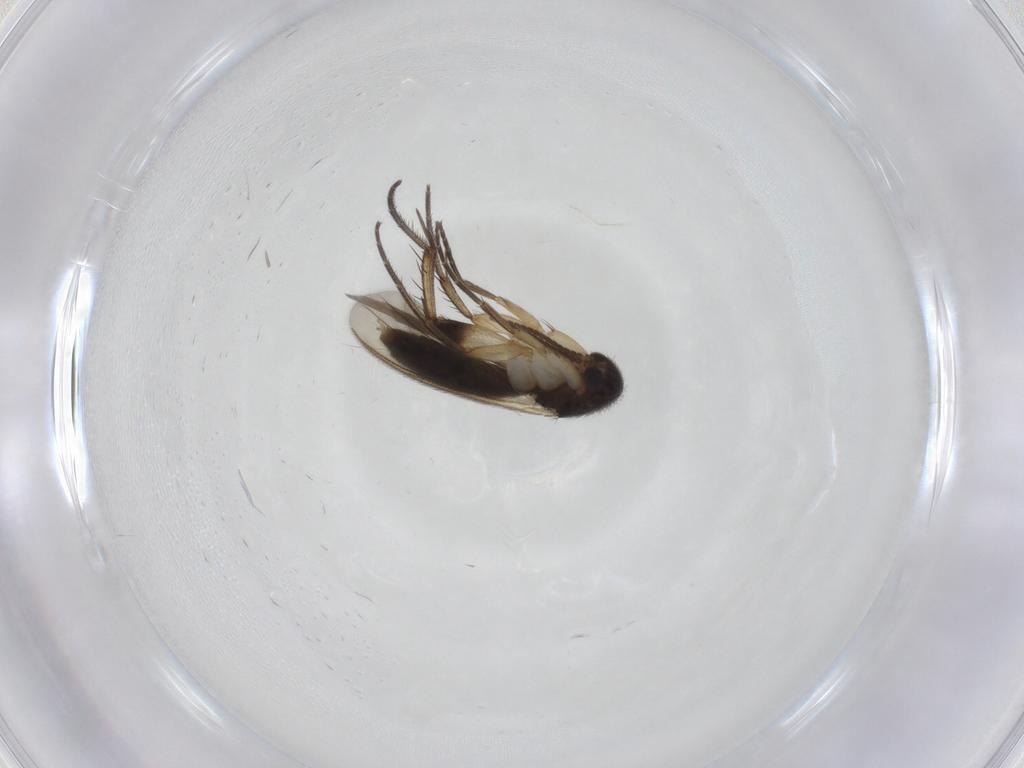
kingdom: Animalia
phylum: Arthropoda
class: Insecta
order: Diptera
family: Mycetophilidae
